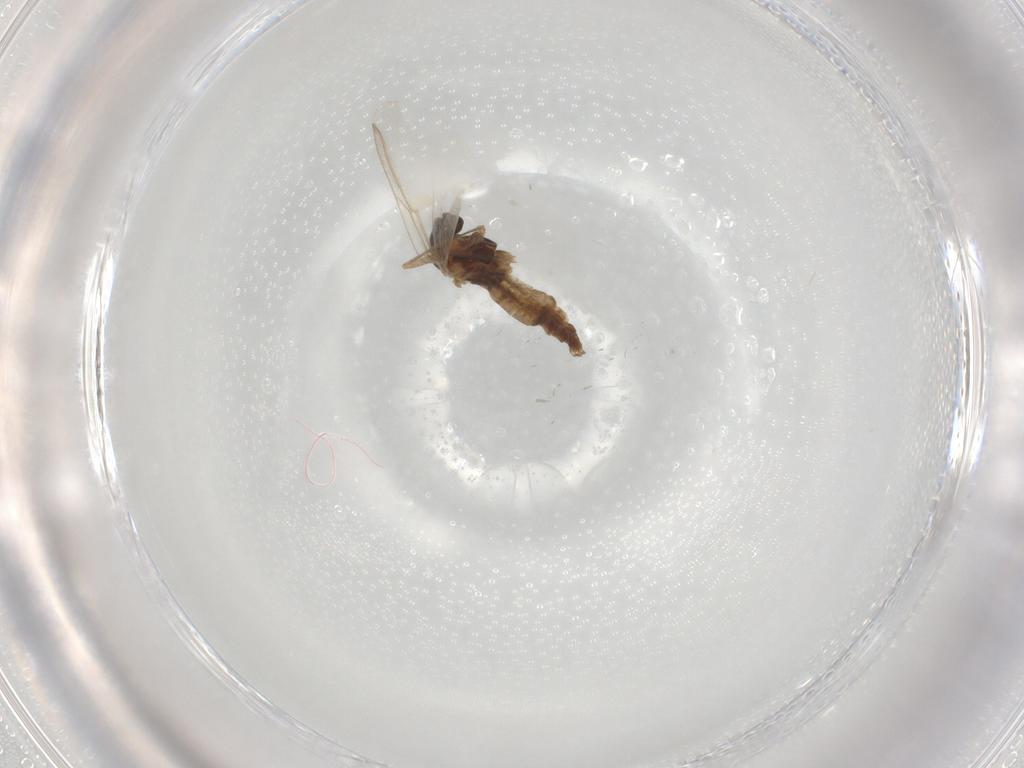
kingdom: Animalia
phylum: Arthropoda
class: Insecta
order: Diptera
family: Cecidomyiidae
